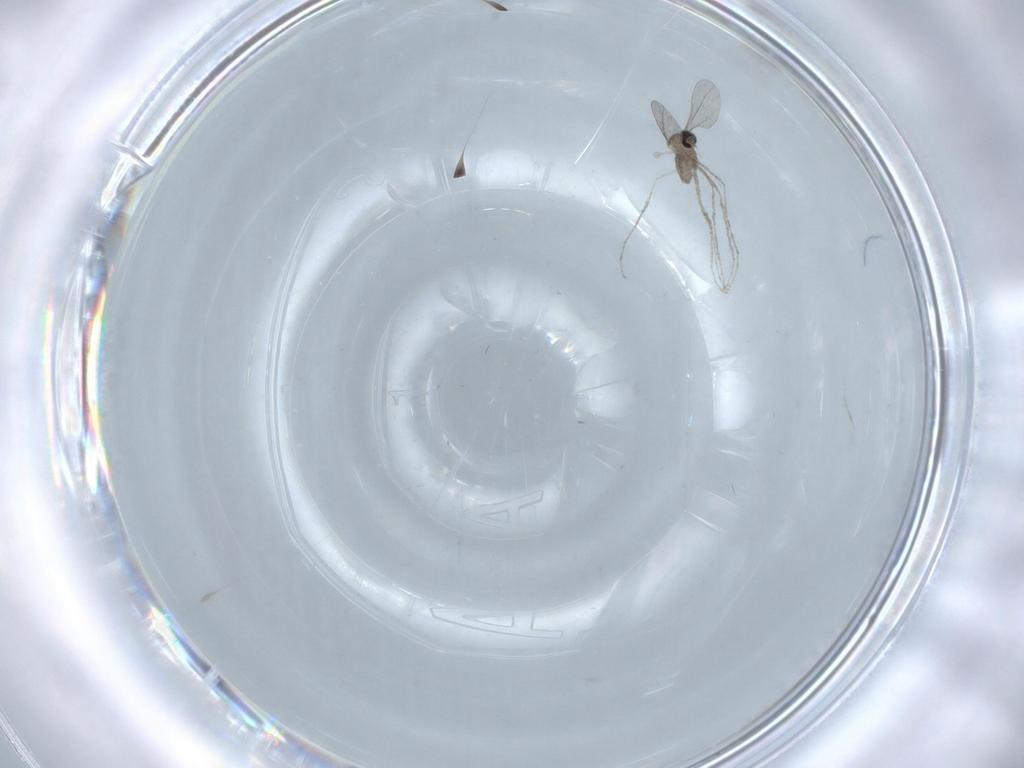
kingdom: Animalia
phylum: Arthropoda
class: Insecta
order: Diptera
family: Cecidomyiidae
